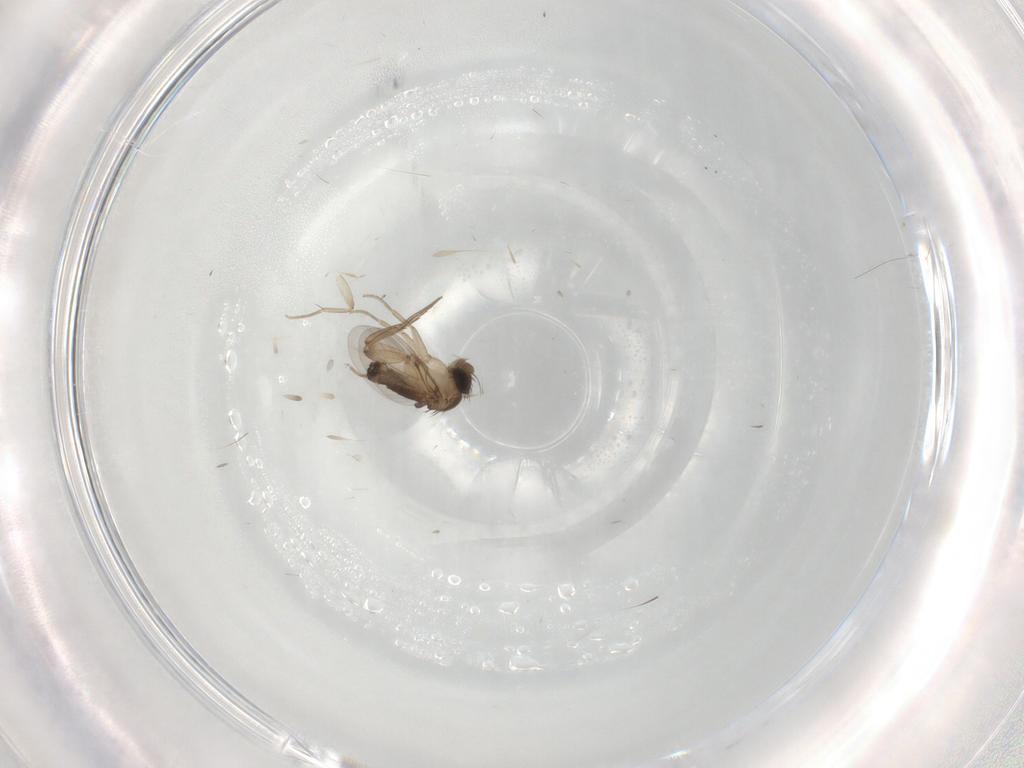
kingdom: Animalia
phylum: Arthropoda
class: Insecta
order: Diptera
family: Phoridae
